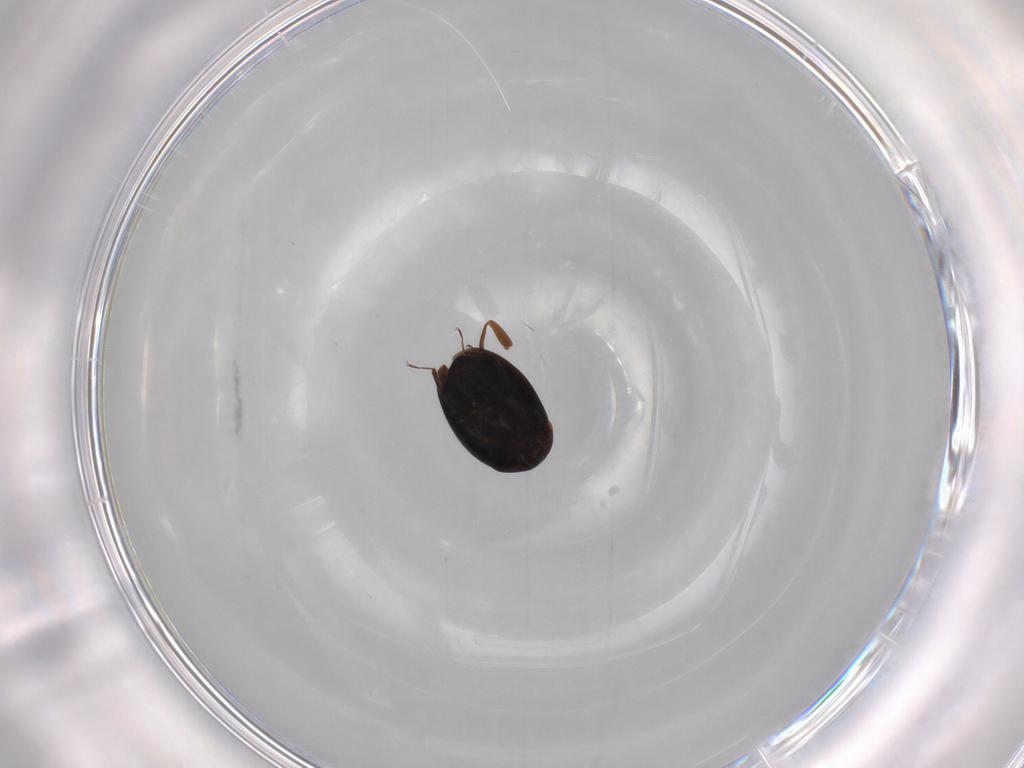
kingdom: Animalia
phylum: Arthropoda
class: Insecta
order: Coleoptera
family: Corylophidae
